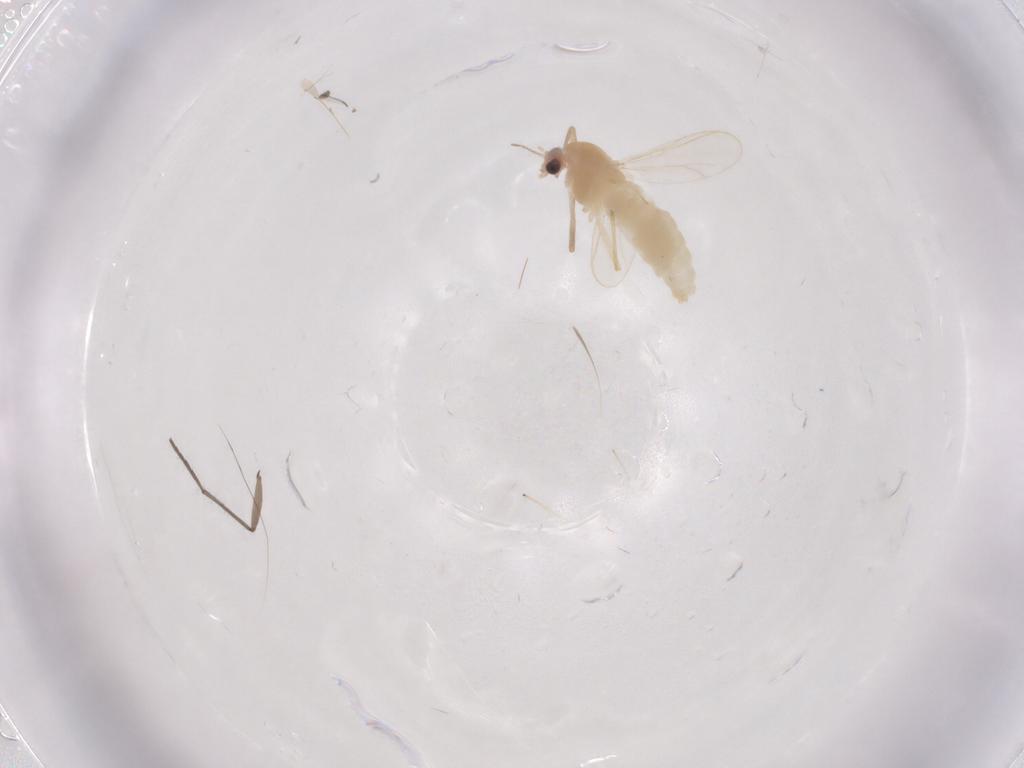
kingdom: Animalia
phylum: Arthropoda
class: Insecta
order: Diptera
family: Chironomidae
